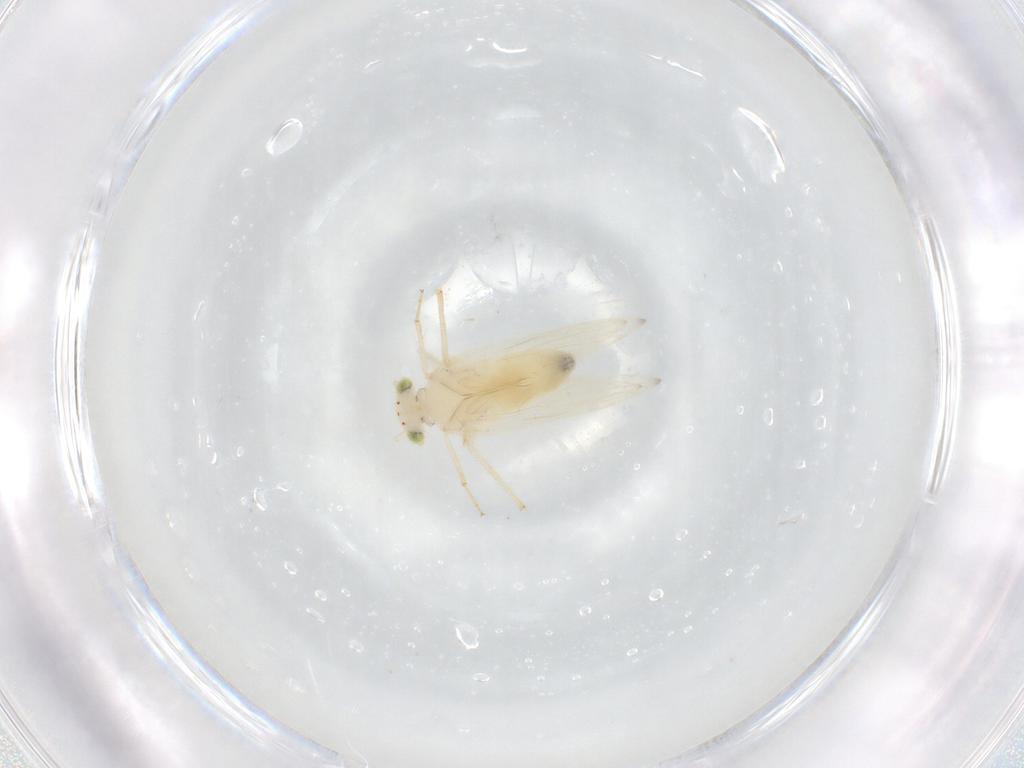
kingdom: Animalia
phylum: Arthropoda
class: Insecta
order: Psocodea
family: Lepidopsocidae
